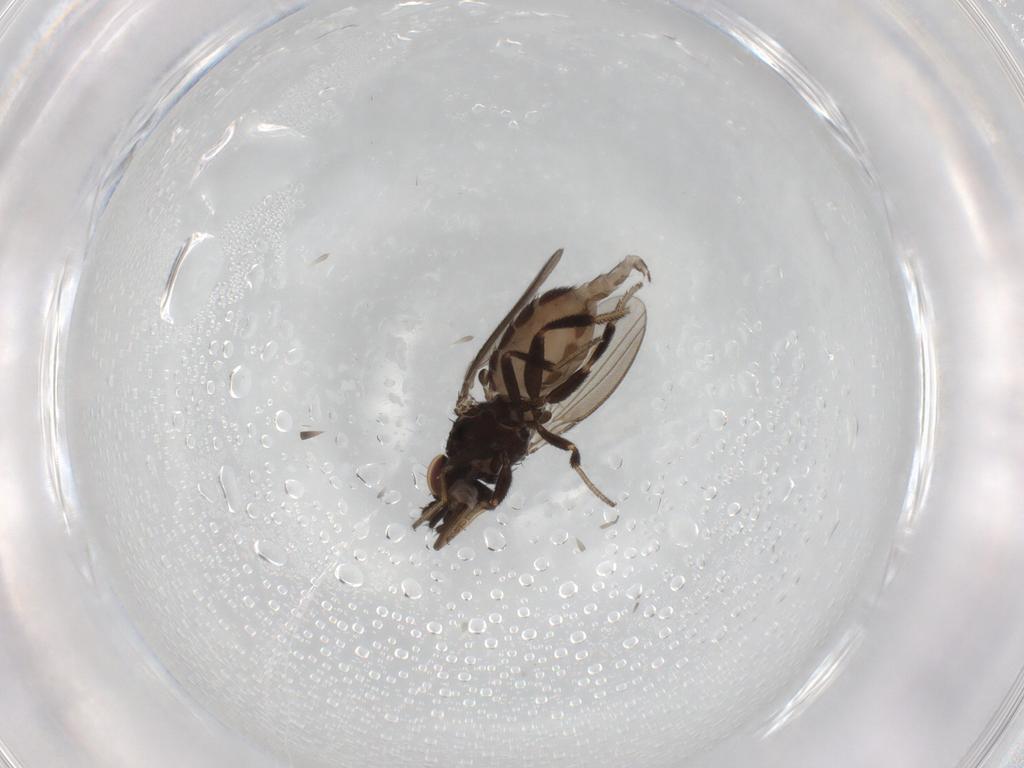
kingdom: Animalia
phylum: Arthropoda
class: Insecta
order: Diptera
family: Milichiidae
